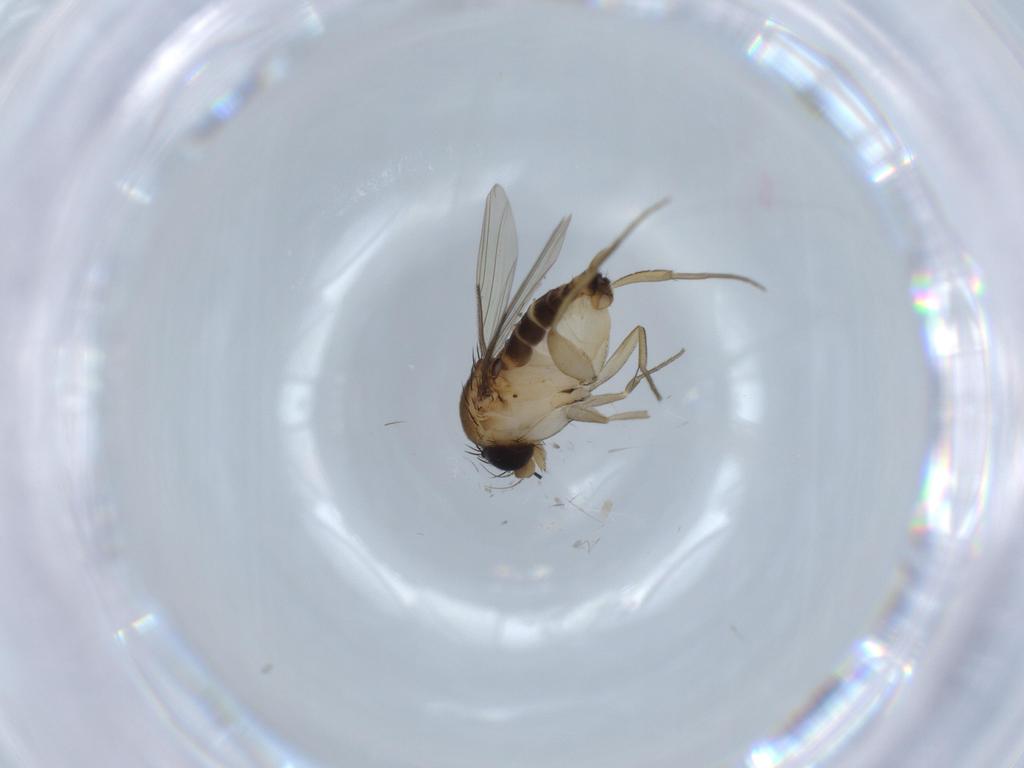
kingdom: Animalia
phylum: Arthropoda
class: Insecta
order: Diptera
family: Phoridae
